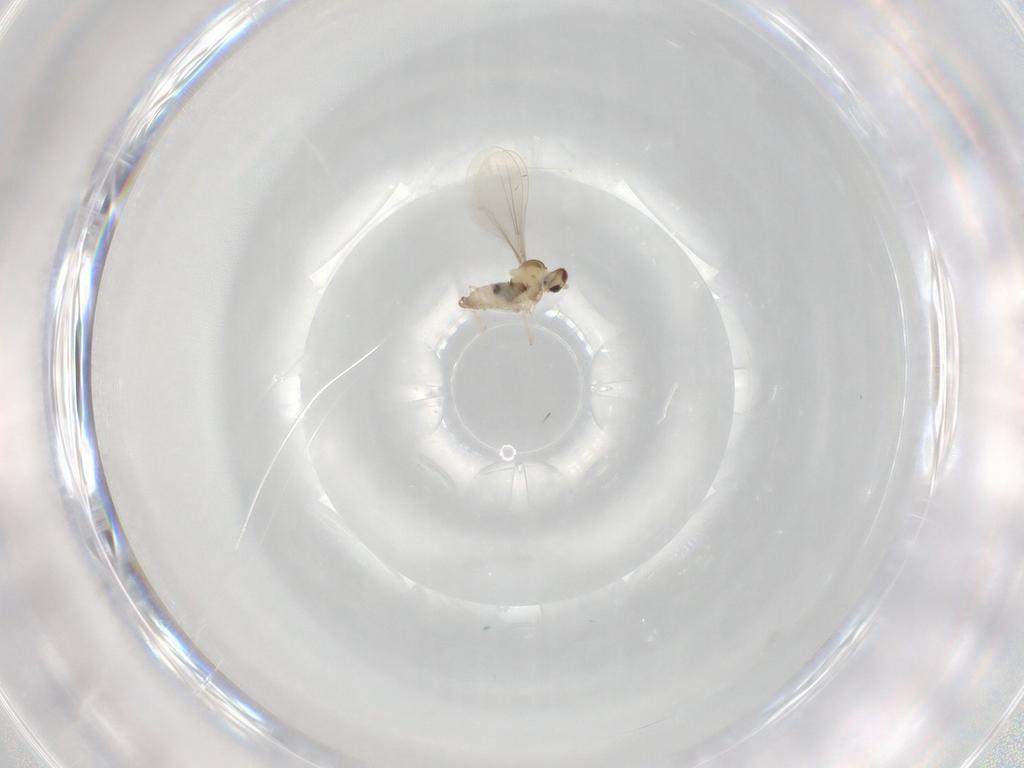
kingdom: Animalia
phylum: Arthropoda
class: Insecta
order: Diptera
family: Cecidomyiidae
